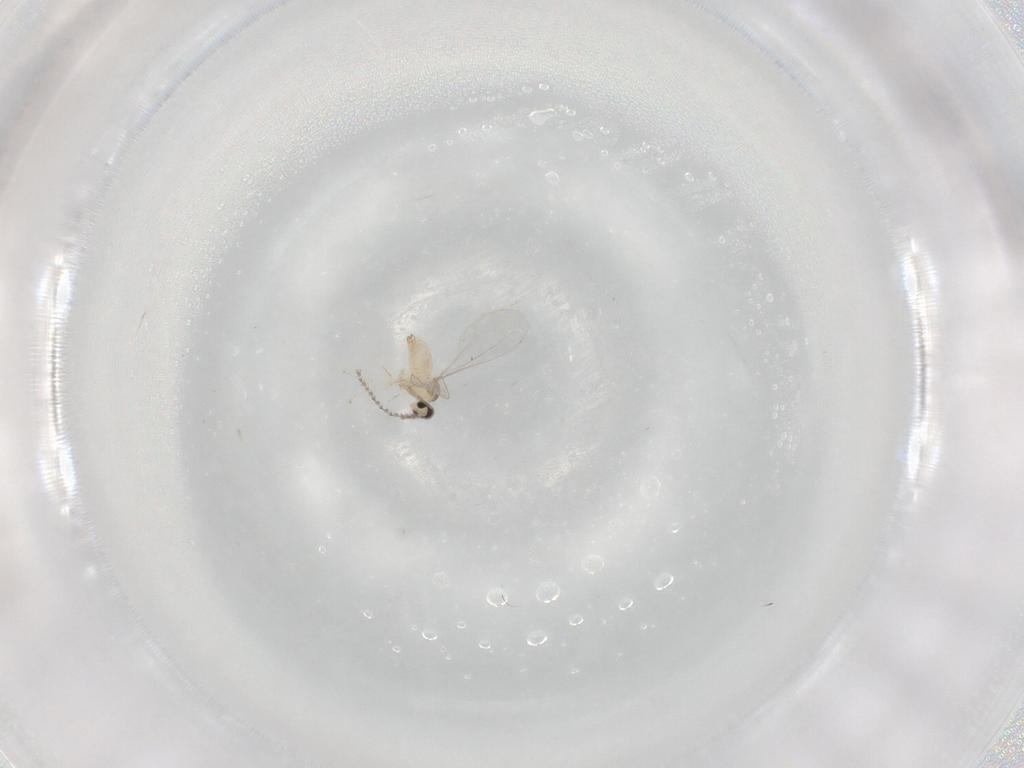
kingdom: Animalia
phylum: Arthropoda
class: Insecta
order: Diptera
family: Cecidomyiidae
